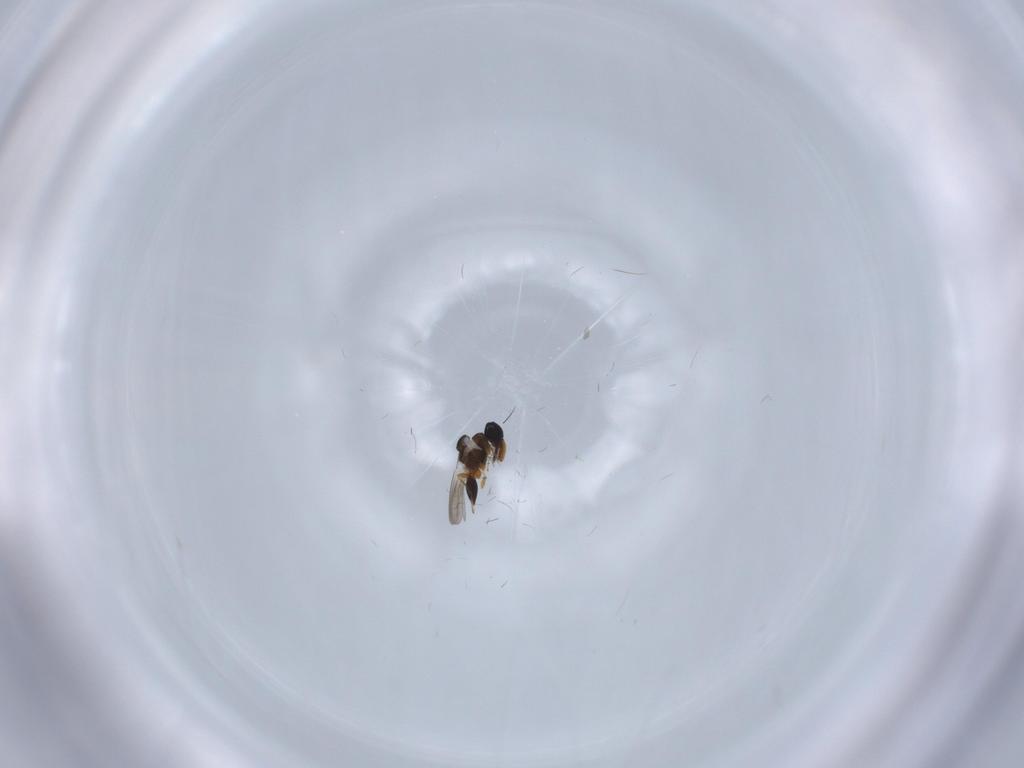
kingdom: Animalia
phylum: Arthropoda
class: Insecta
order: Hymenoptera
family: Platygastridae
